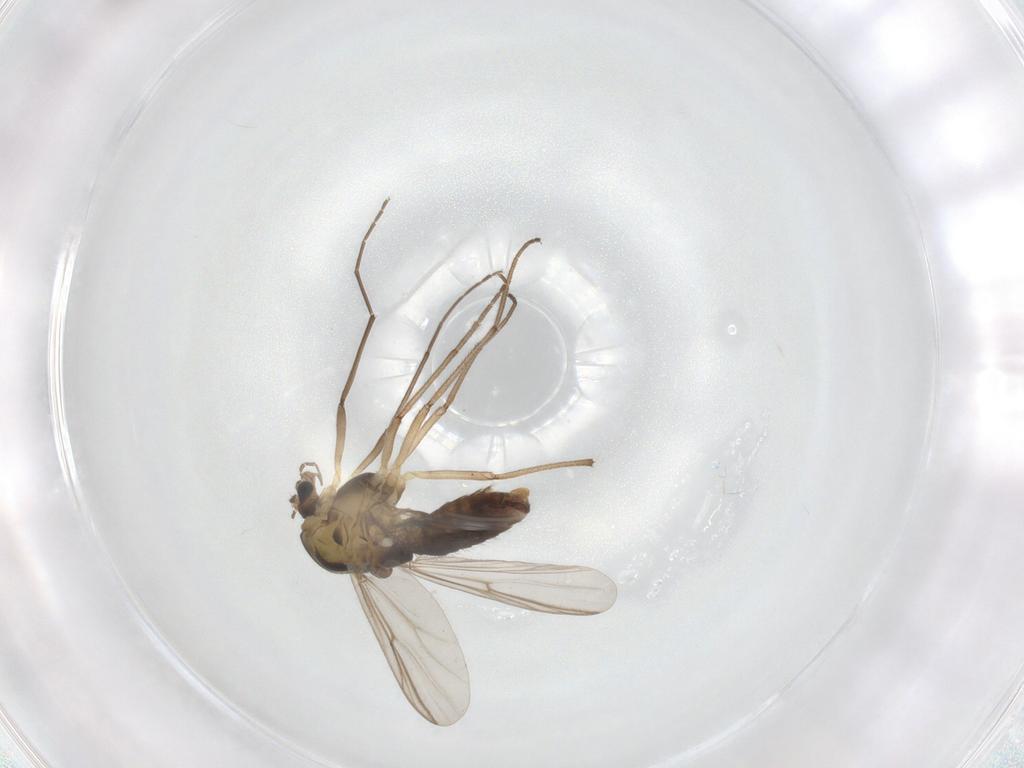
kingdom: Animalia
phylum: Arthropoda
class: Insecta
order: Diptera
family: Chironomidae
